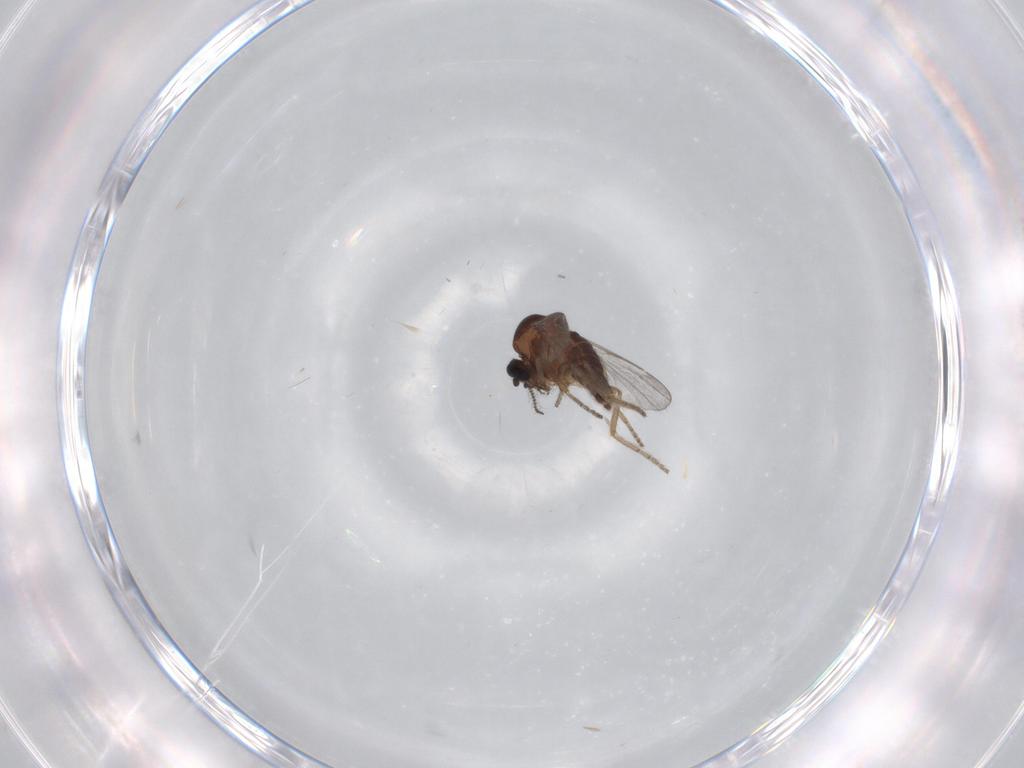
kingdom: Animalia
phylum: Arthropoda
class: Insecta
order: Diptera
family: Ceratopogonidae
